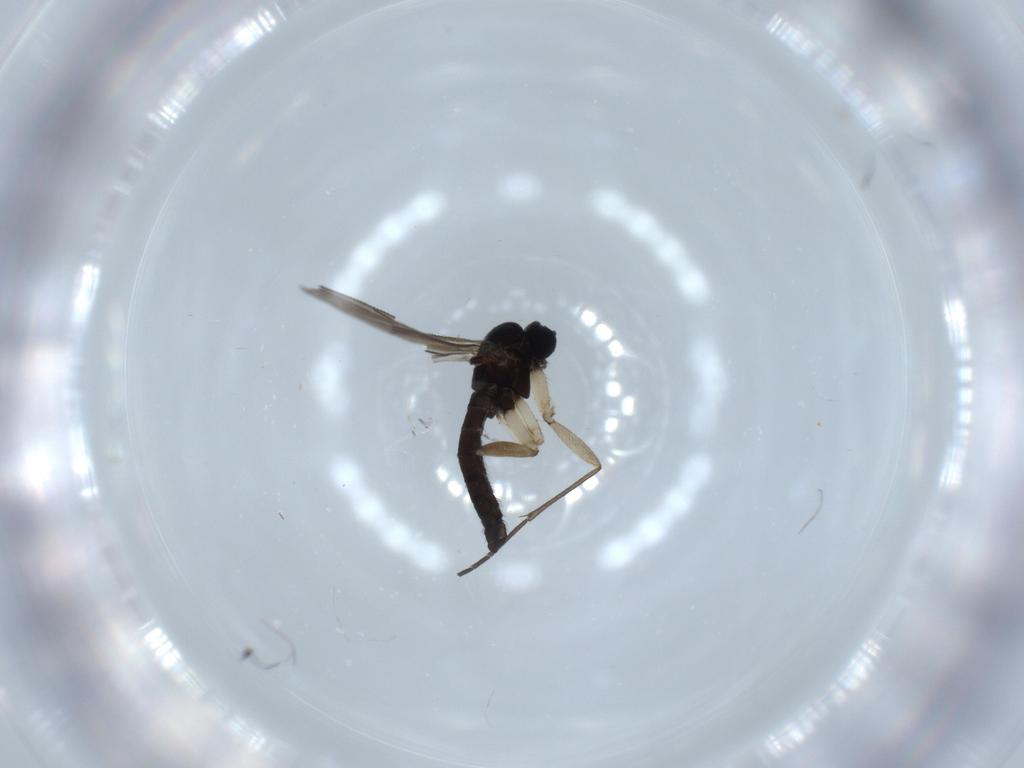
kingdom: Animalia
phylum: Arthropoda
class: Insecta
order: Diptera
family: Sciaridae
